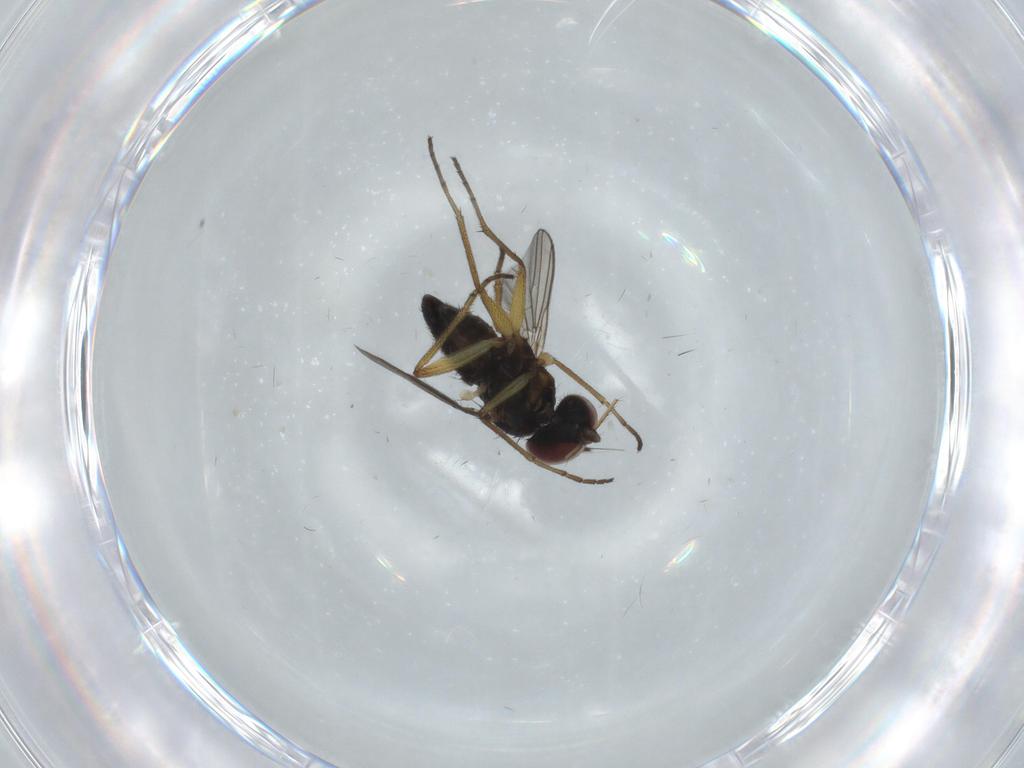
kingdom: Animalia
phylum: Arthropoda
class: Insecta
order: Diptera
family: Dolichopodidae
